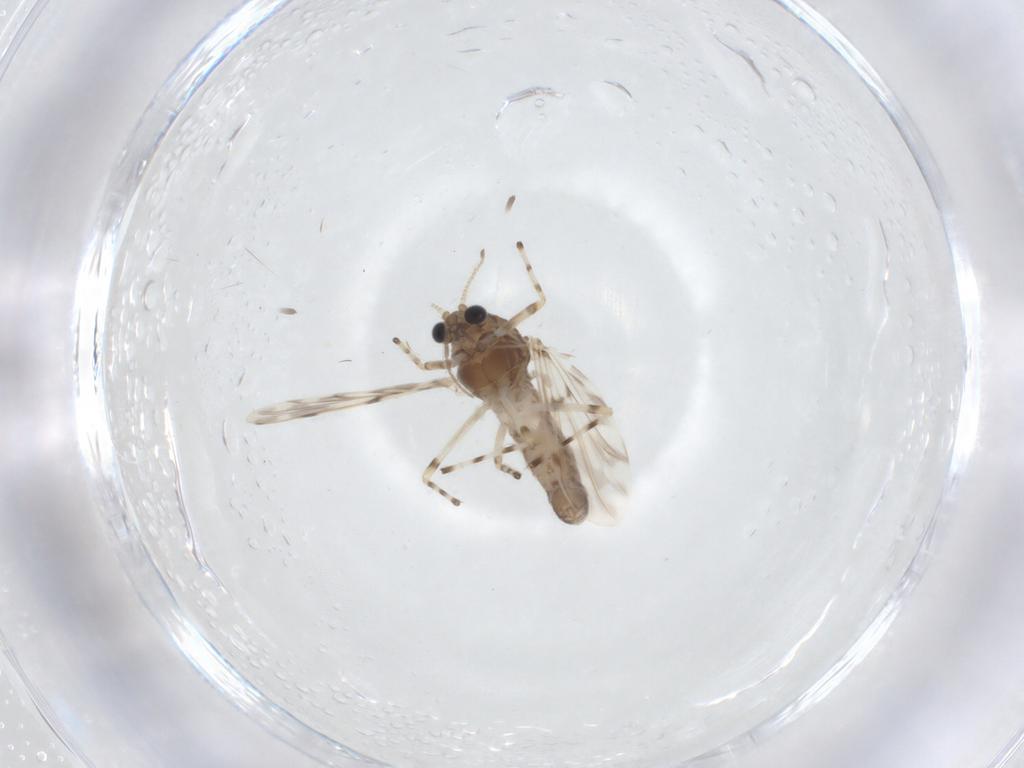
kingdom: Animalia
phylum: Arthropoda
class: Insecta
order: Diptera
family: Chironomidae
